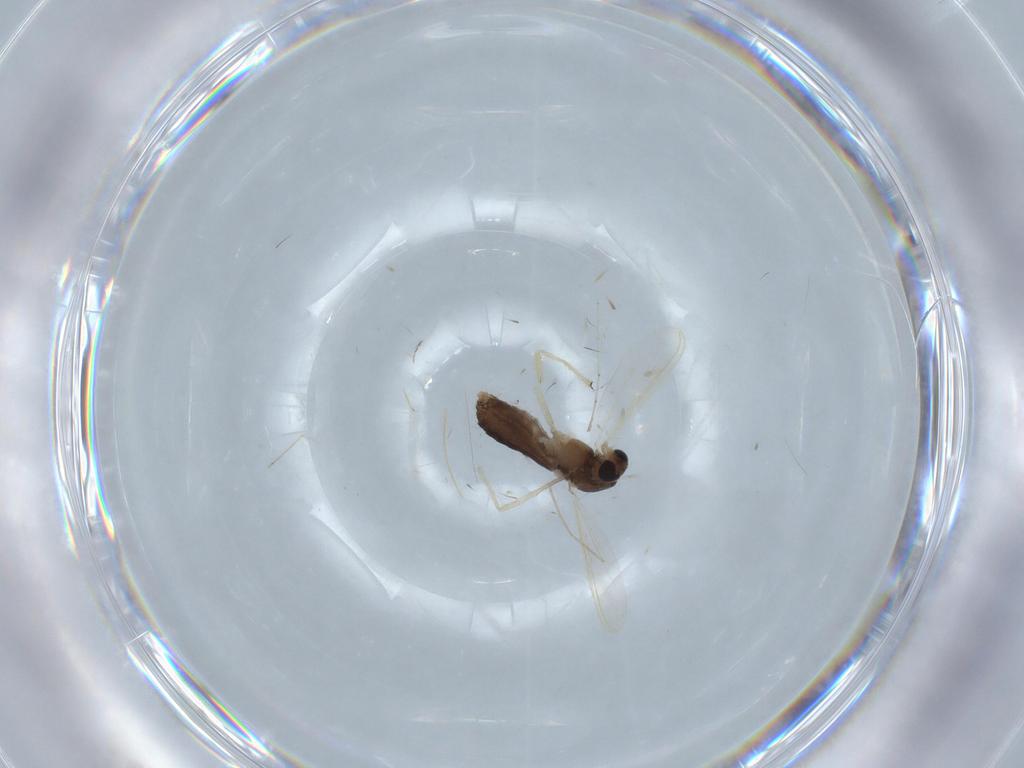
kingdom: Animalia
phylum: Arthropoda
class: Insecta
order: Diptera
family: Chironomidae
